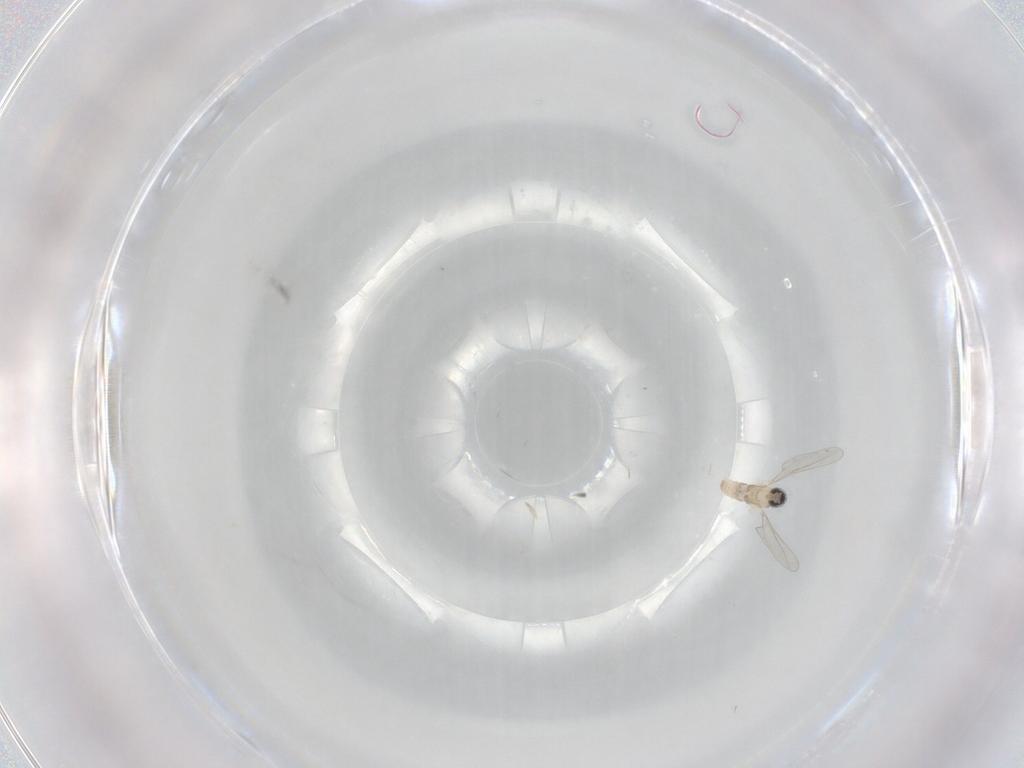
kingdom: Animalia
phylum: Arthropoda
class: Insecta
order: Diptera
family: Cecidomyiidae
